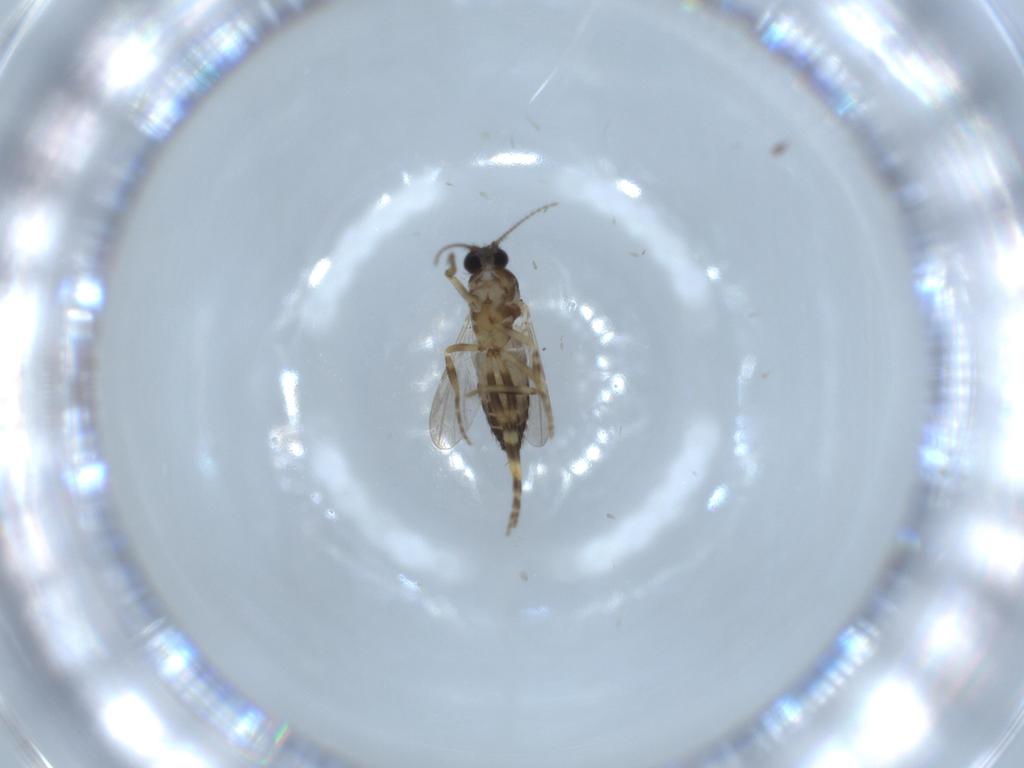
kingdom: Animalia
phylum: Arthropoda
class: Insecta
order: Diptera
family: Ceratopogonidae
